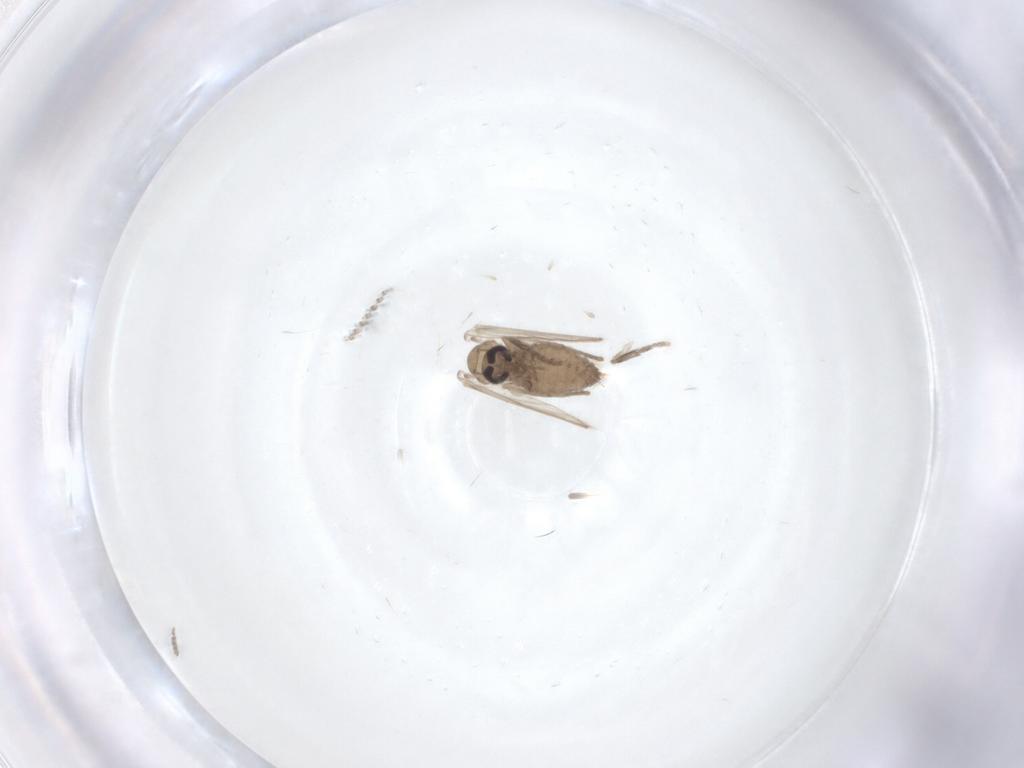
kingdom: Animalia
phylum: Arthropoda
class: Insecta
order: Diptera
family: Psychodidae
